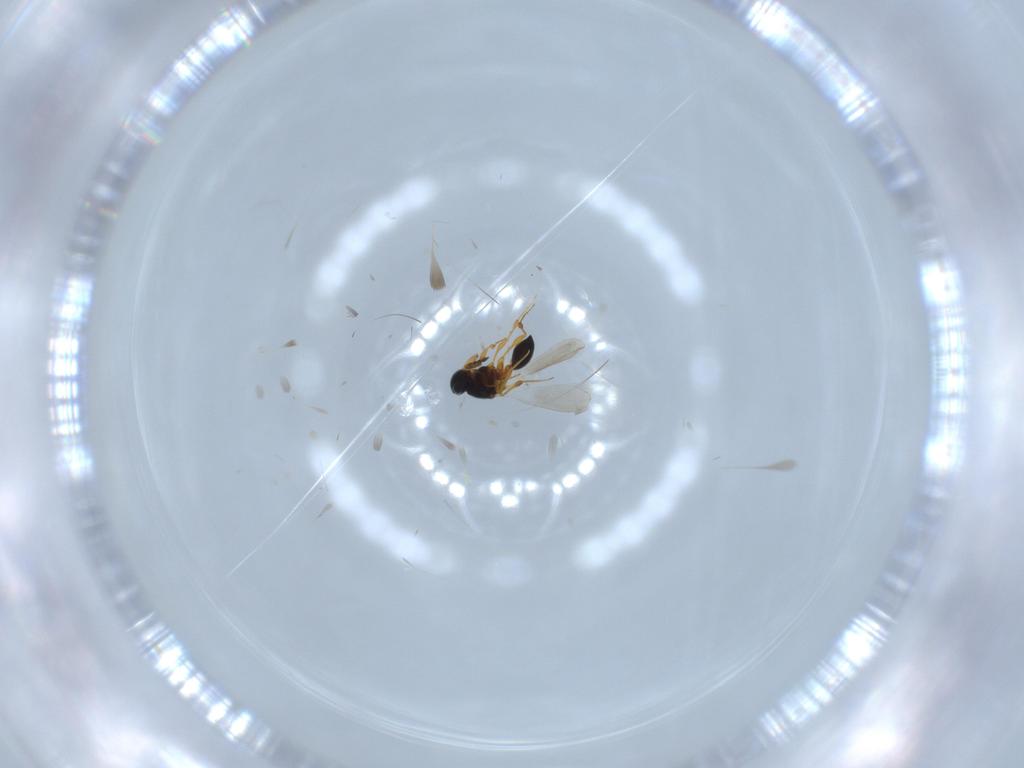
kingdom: Animalia
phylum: Arthropoda
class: Insecta
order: Hymenoptera
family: Platygastridae
